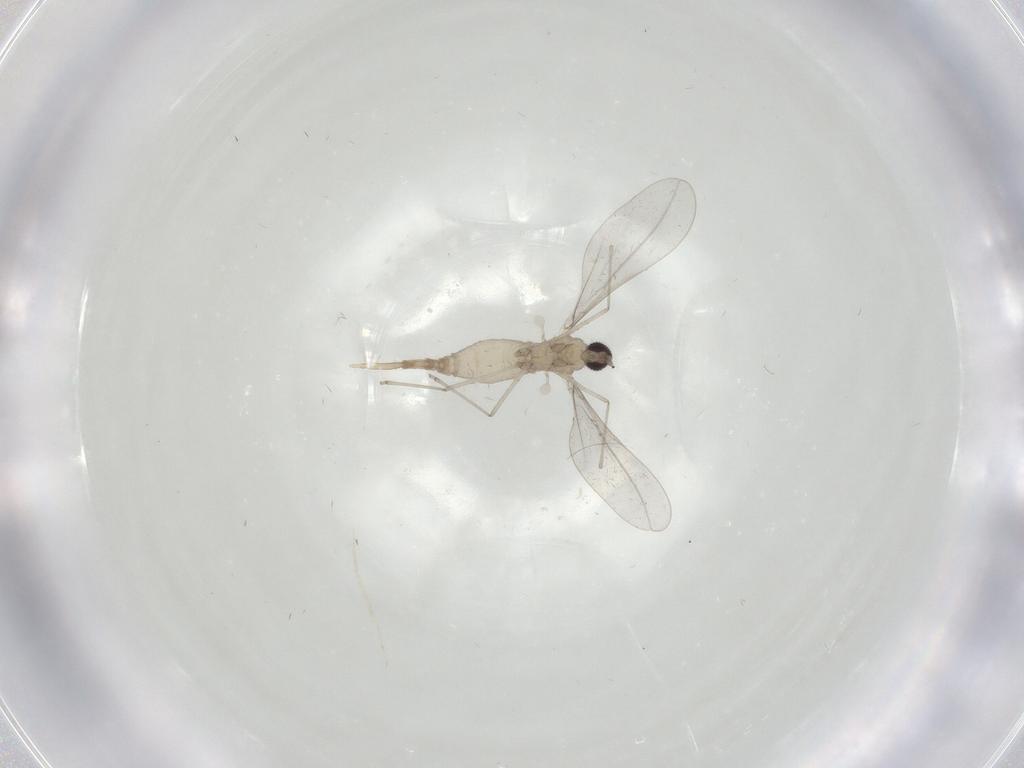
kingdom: Animalia
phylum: Arthropoda
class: Insecta
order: Diptera
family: Cecidomyiidae
